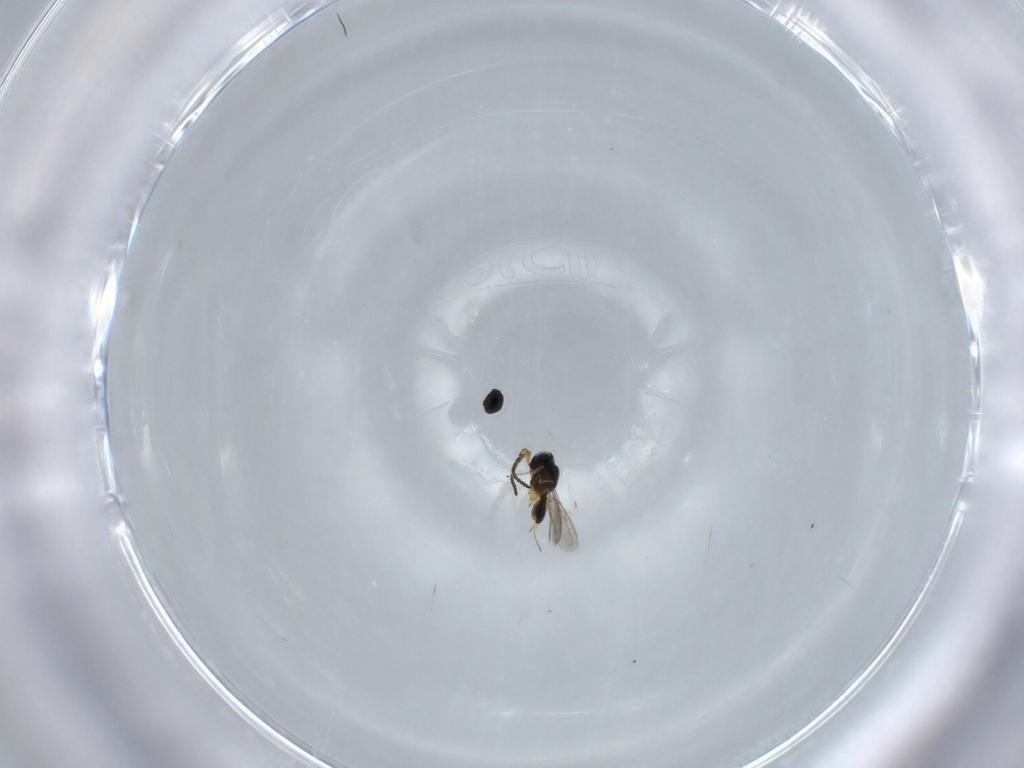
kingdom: Animalia
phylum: Arthropoda
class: Insecta
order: Hymenoptera
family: Scelionidae
